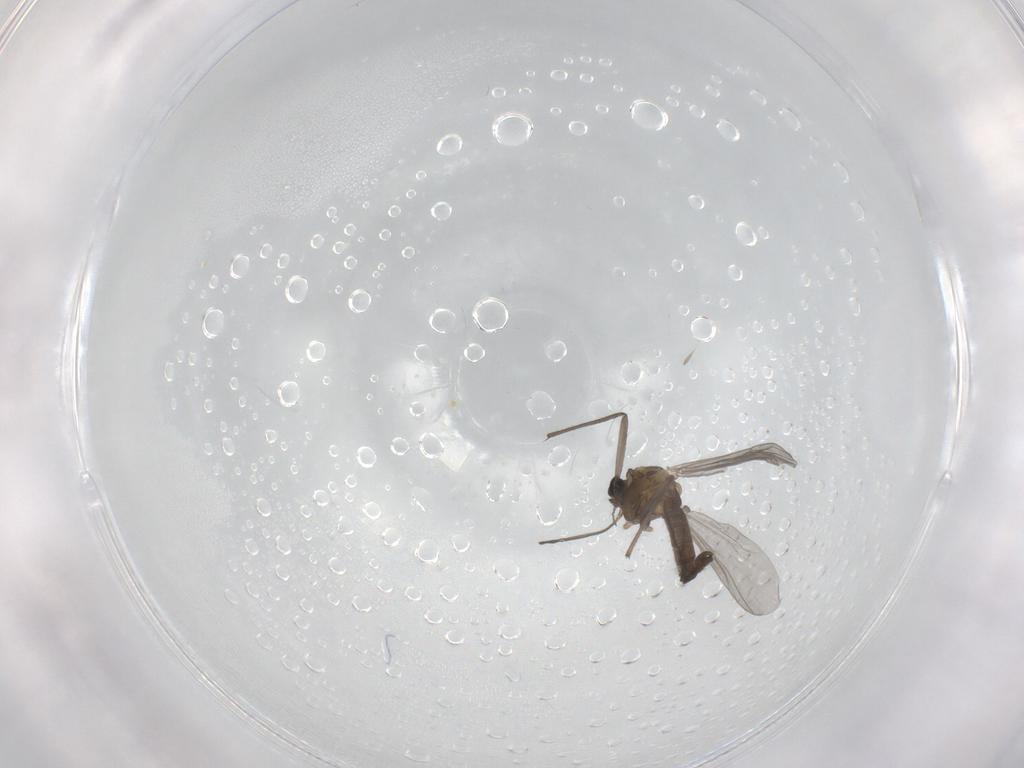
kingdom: Animalia
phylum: Arthropoda
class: Insecta
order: Diptera
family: Chironomidae
